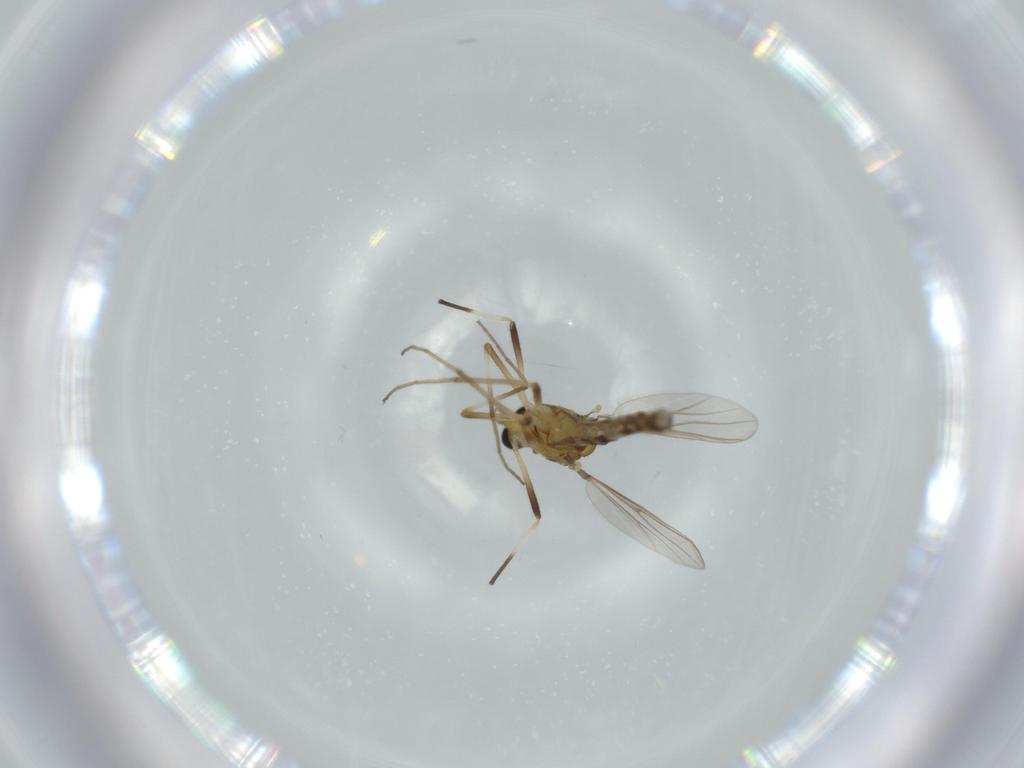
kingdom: Animalia
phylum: Arthropoda
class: Insecta
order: Diptera
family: Chironomidae
